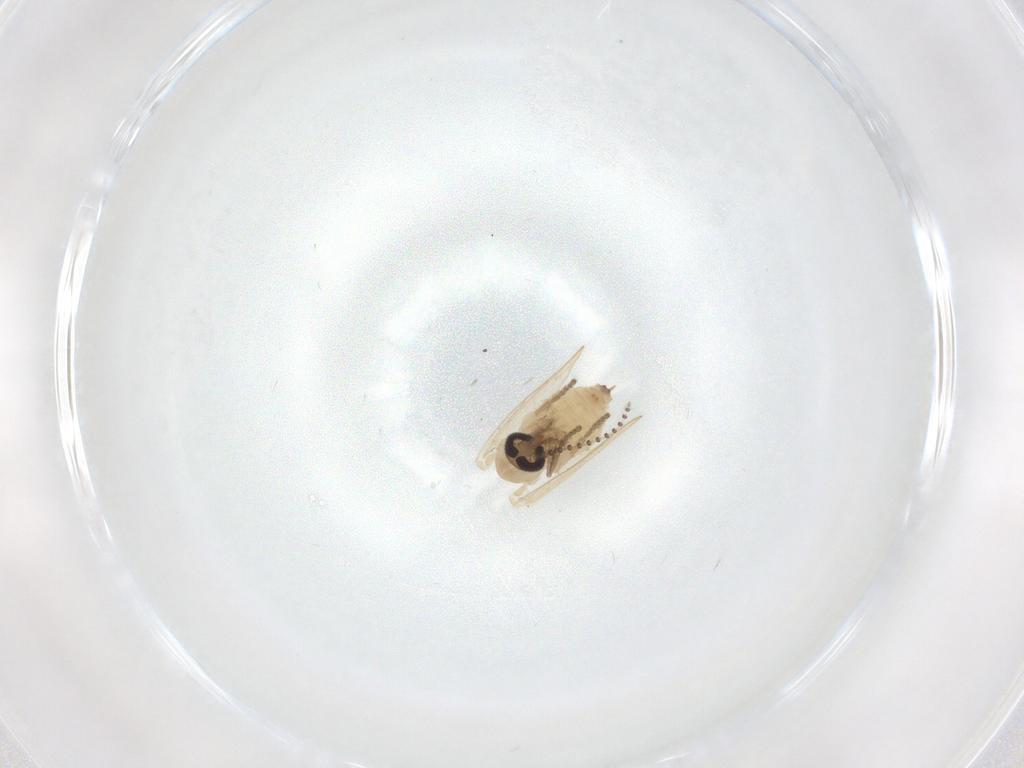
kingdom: Animalia
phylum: Arthropoda
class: Insecta
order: Diptera
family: Psychodidae
